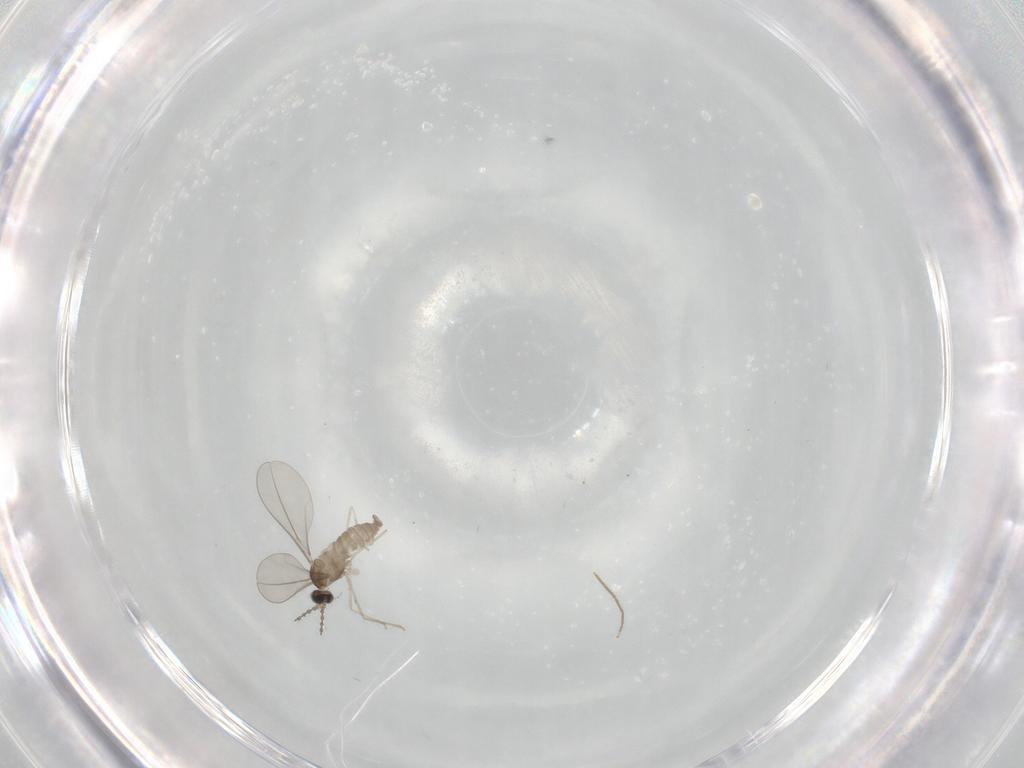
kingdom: Animalia
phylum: Arthropoda
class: Insecta
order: Diptera
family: Chironomidae
